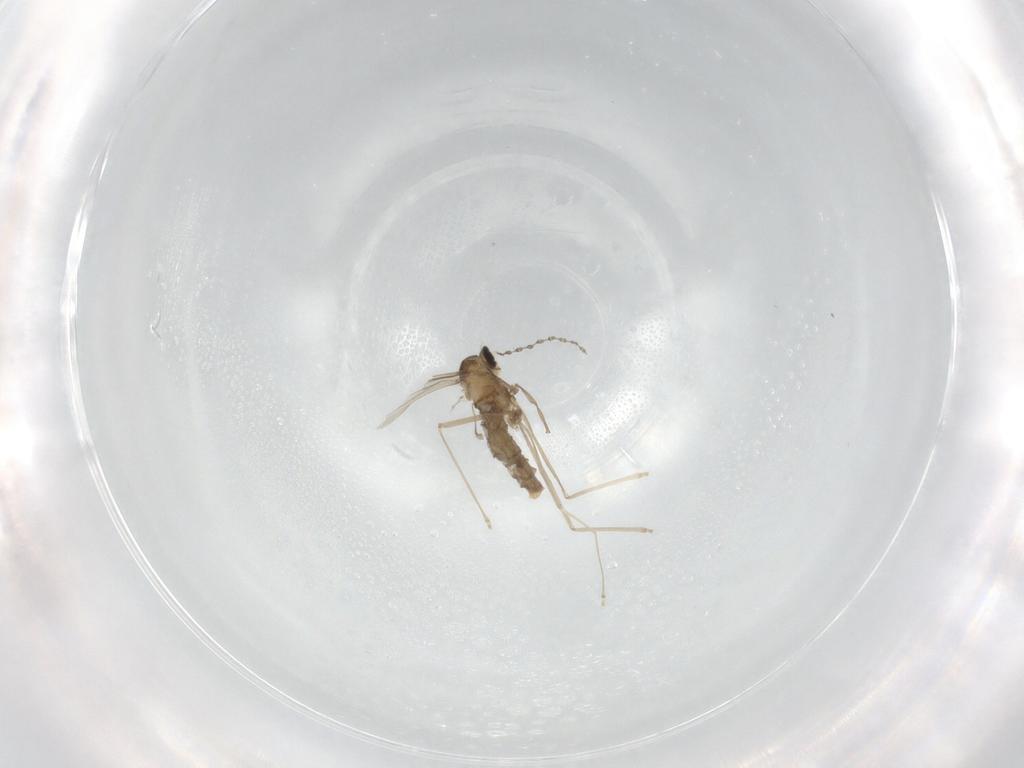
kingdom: Animalia
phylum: Arthropoda
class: Insecta
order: Diptera
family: Cecidomyiidae
